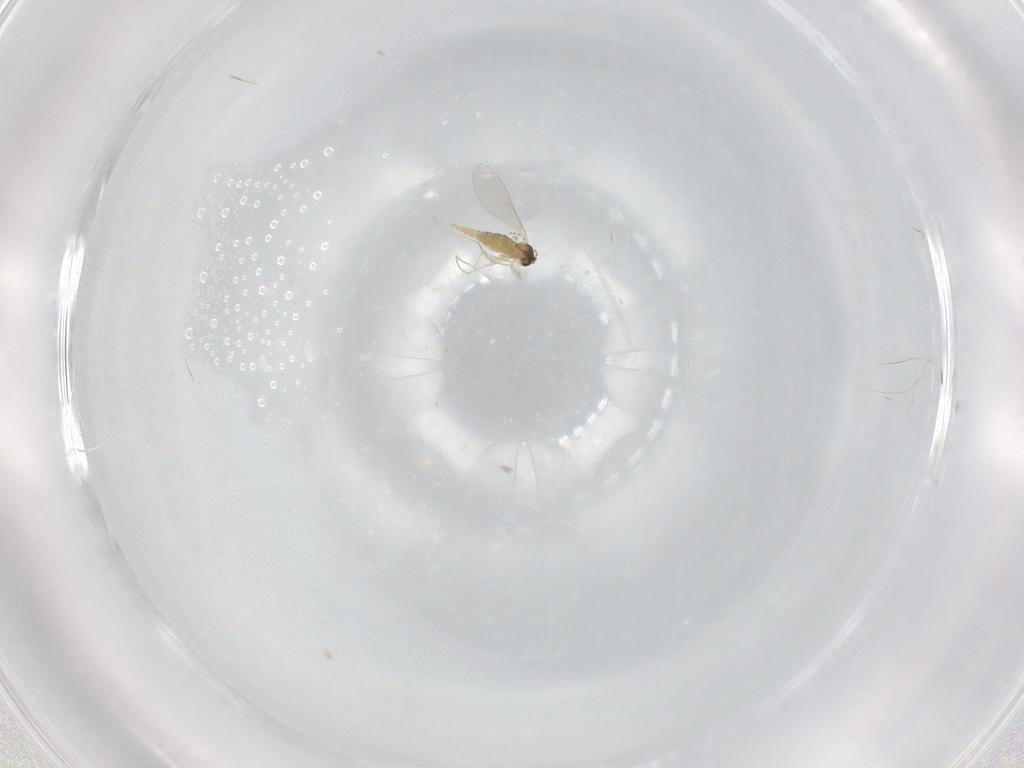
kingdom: Animalia
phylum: Arthropoda
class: Insecta
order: Diptera
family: Cecidomyiidae
